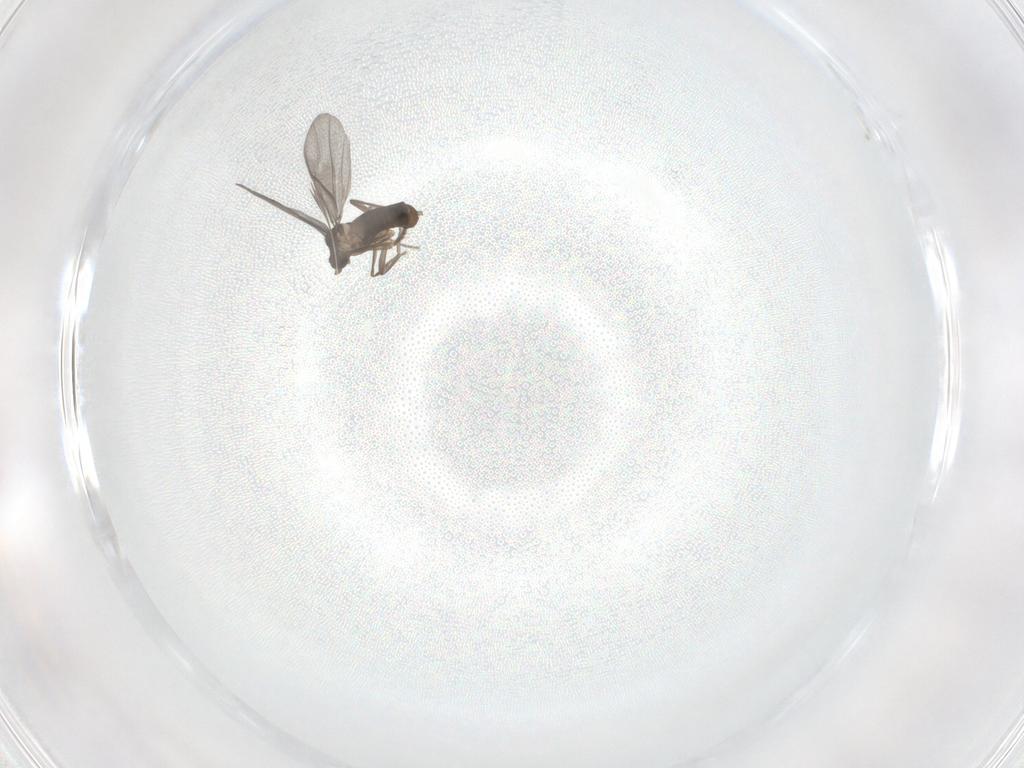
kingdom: Animalia
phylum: Arthropoda
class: Insecta
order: Diptera
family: Phoridae
